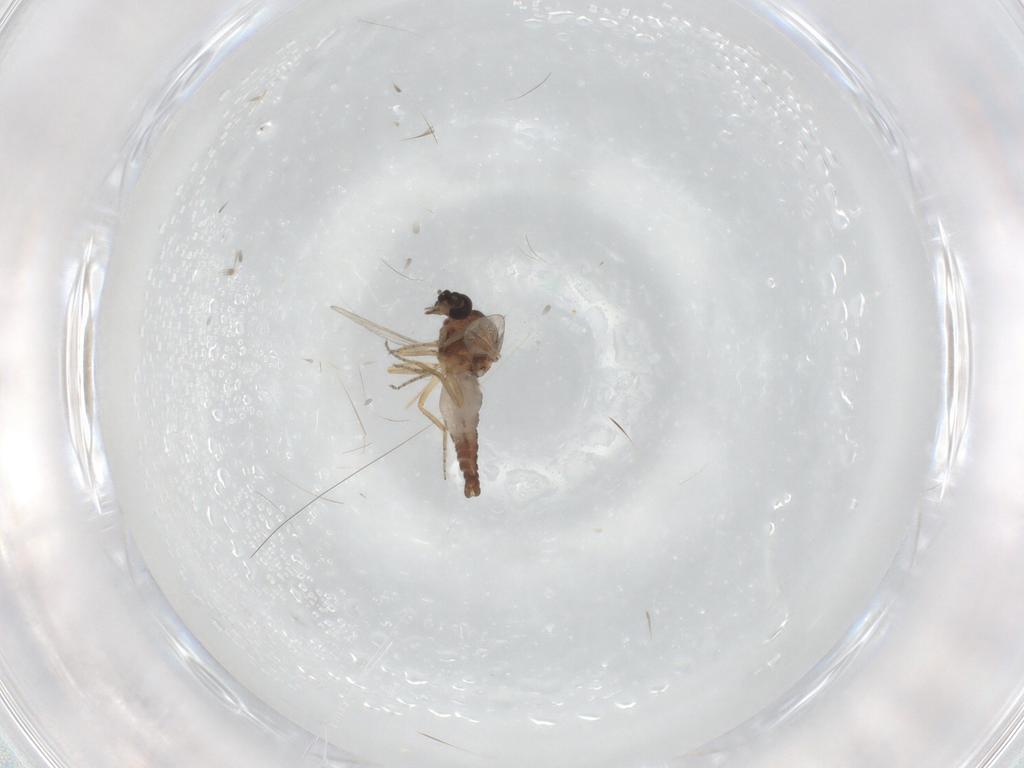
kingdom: Animalia
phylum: Arthropoda
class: Insecta
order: Diptera
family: Ceratopogonidae
